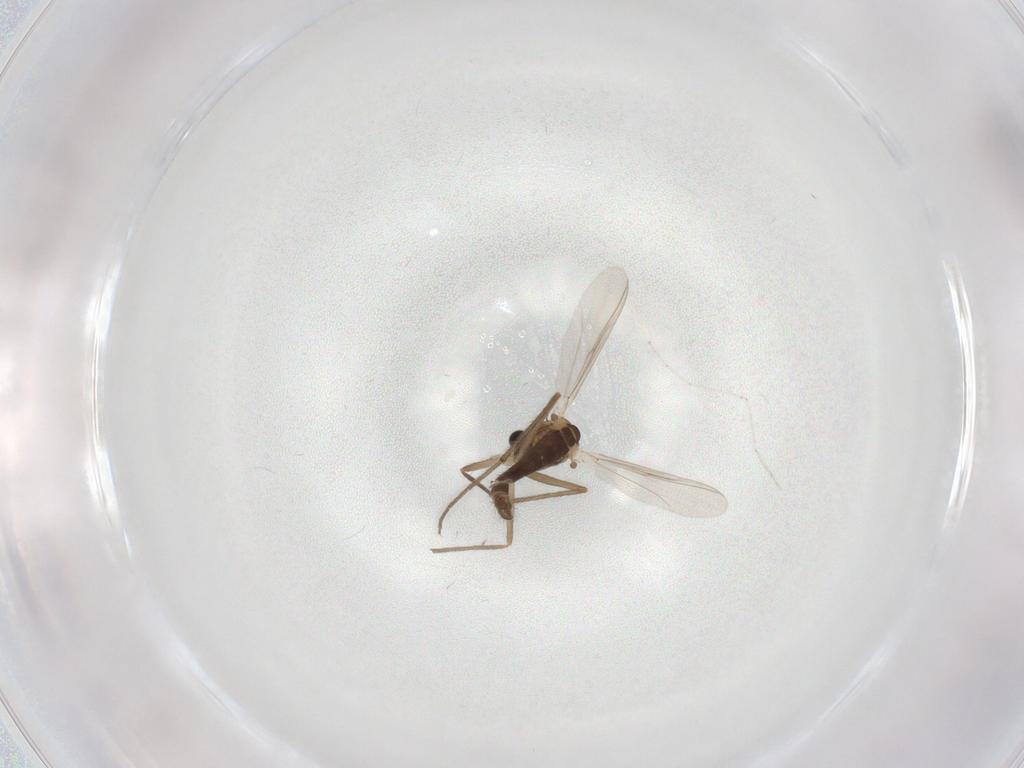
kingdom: Animalia
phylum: Arthropoda
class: Insecta
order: Diptera
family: Chironomidae
